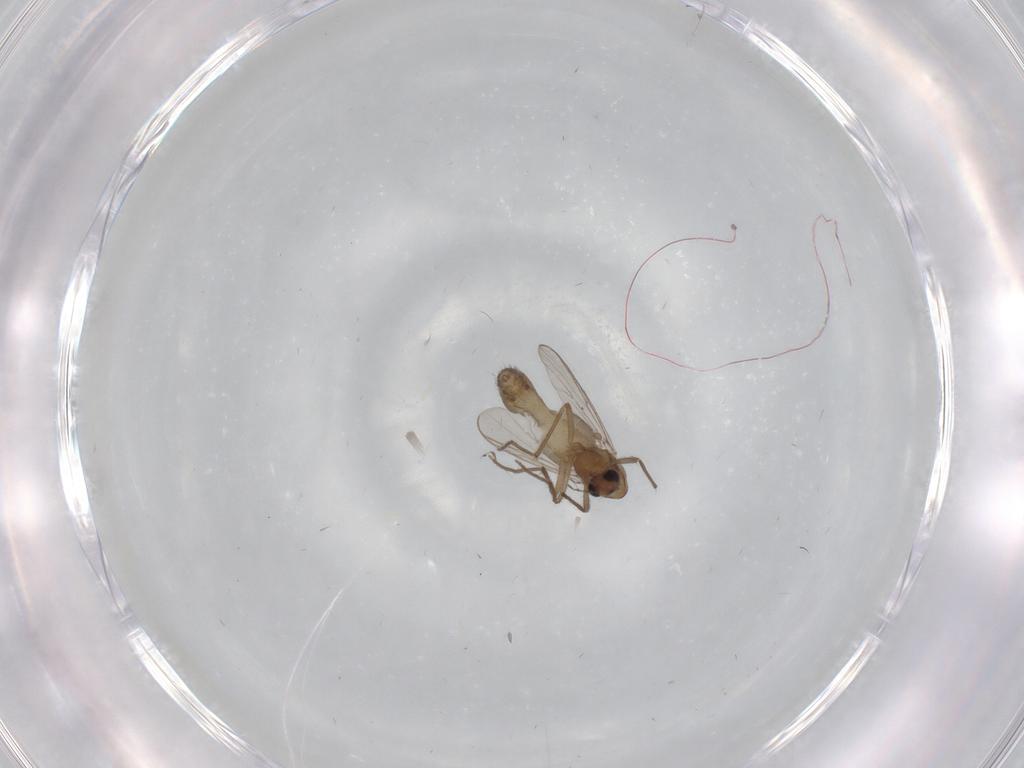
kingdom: Animalia
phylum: Arthropoda
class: Insecta
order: Diptera
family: Chironomidae
